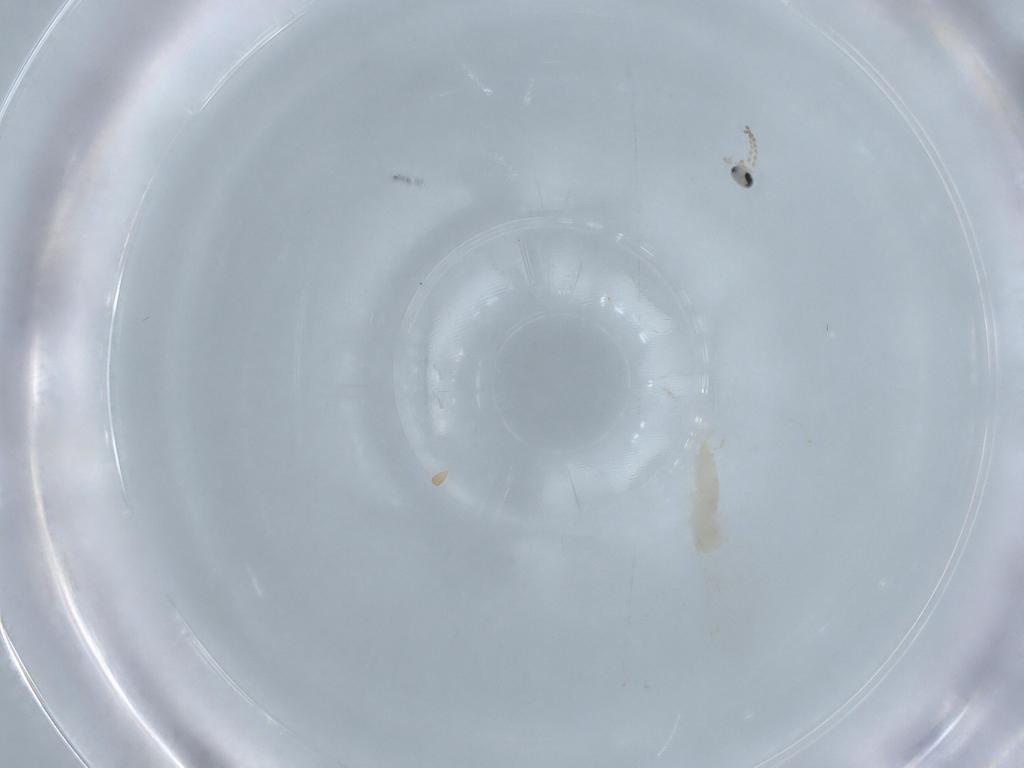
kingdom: Animalia
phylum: Arthropoda
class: Insecta
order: Diptera
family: Cecidomyiidae
